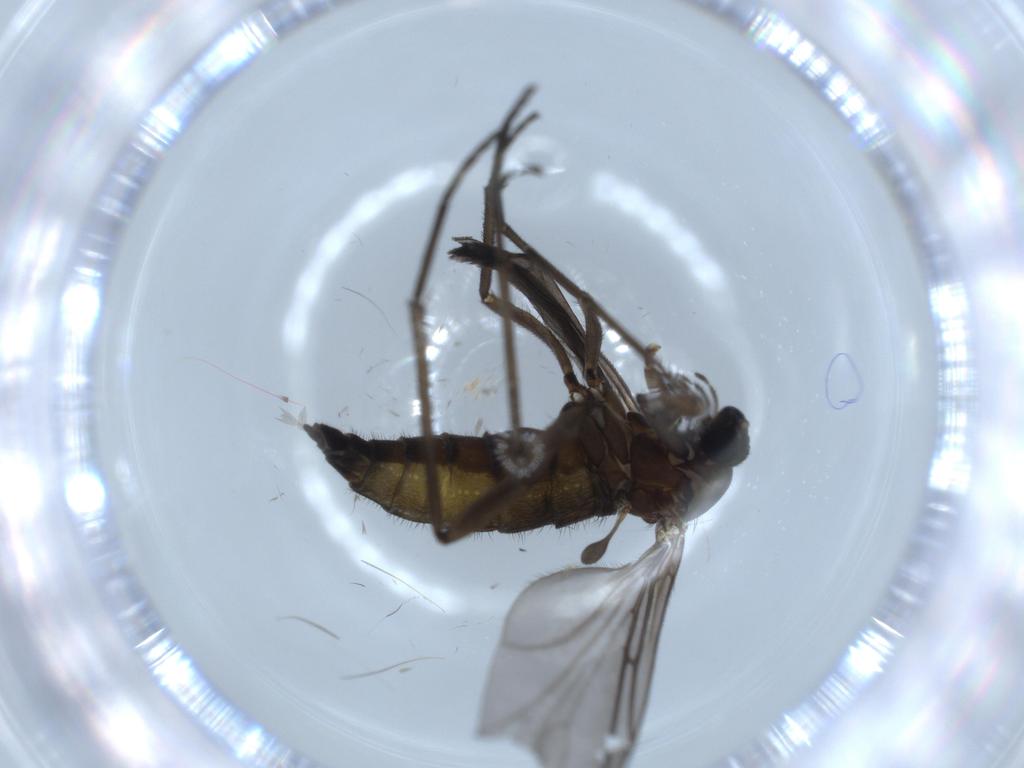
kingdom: Animalia
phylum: Arthropoda
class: Insecta
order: Diptera
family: Sciaridae
